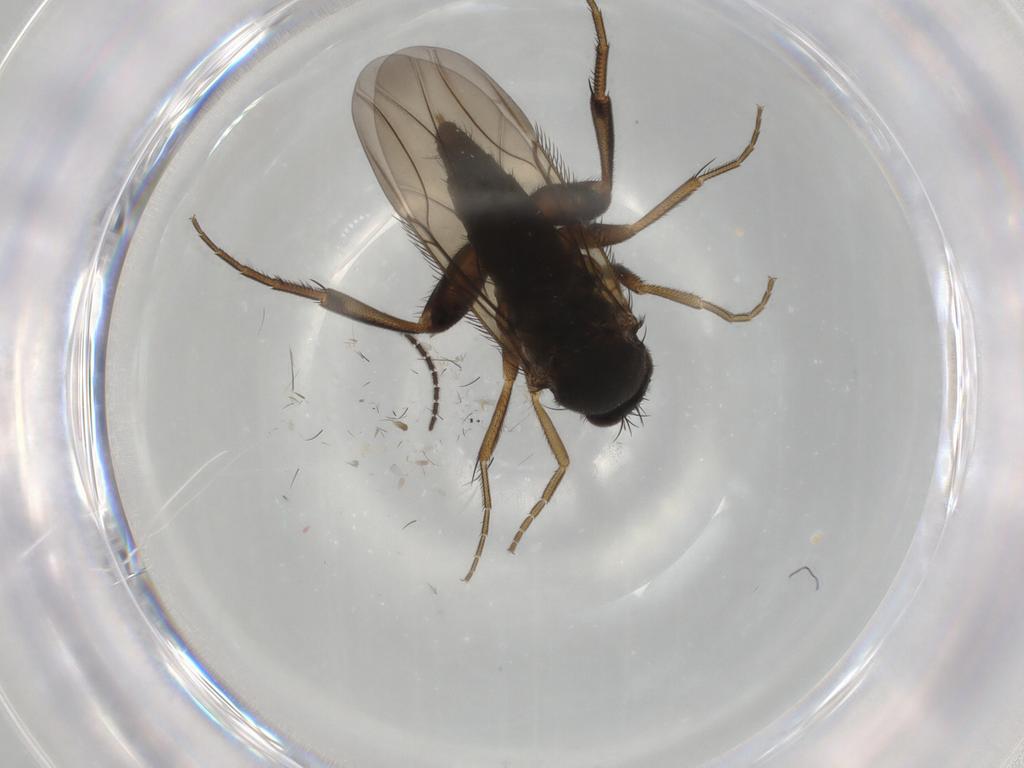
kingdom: Animalia
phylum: Arthropoda
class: Insecta
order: Diptera
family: Phoridae
